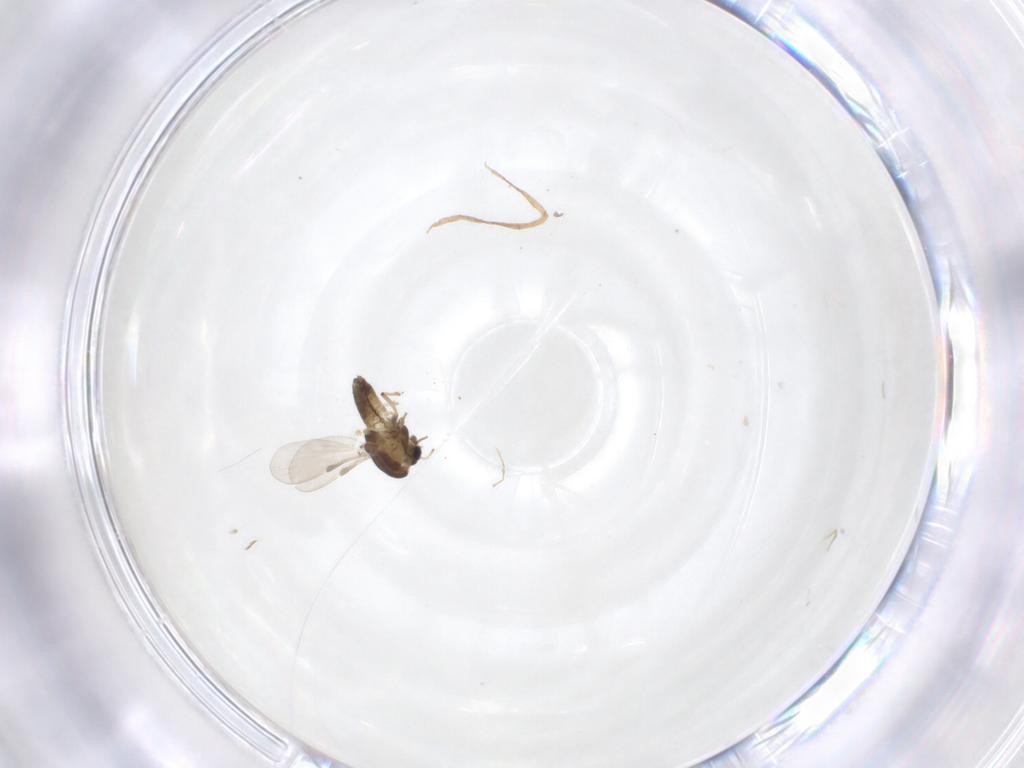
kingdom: Animalia
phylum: Arthropoda
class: Insecta
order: Diptera
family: Chironomidae
